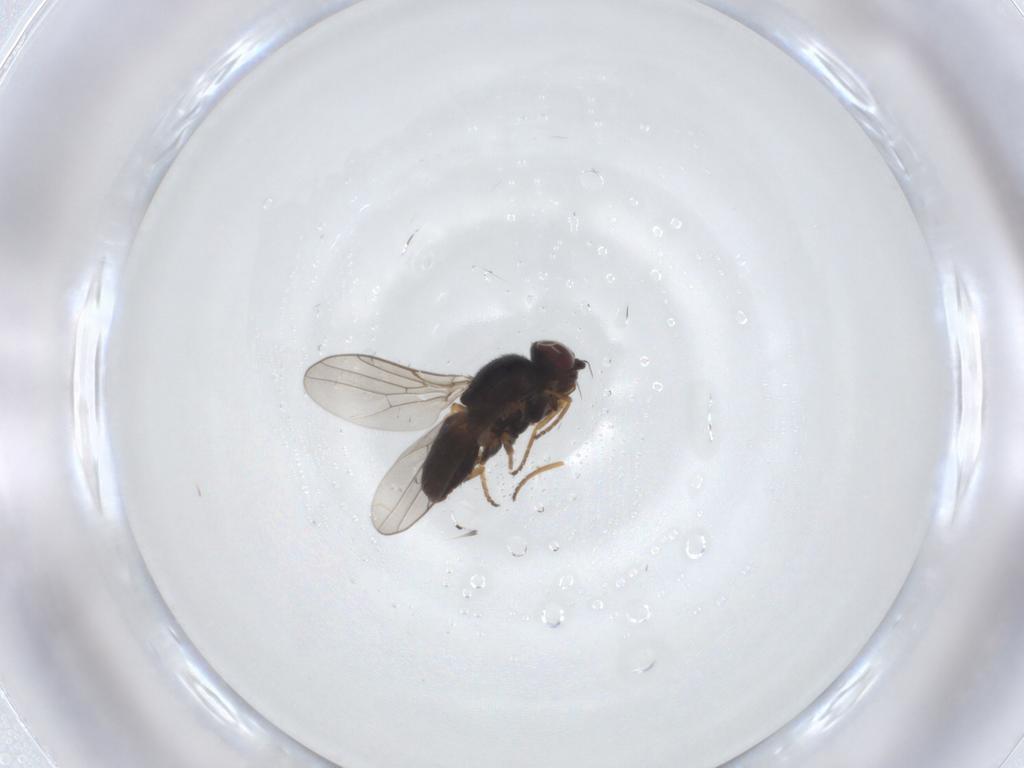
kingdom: Animalia
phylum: Arthropoda
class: Insecta
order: Diptera
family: Chloropidae
